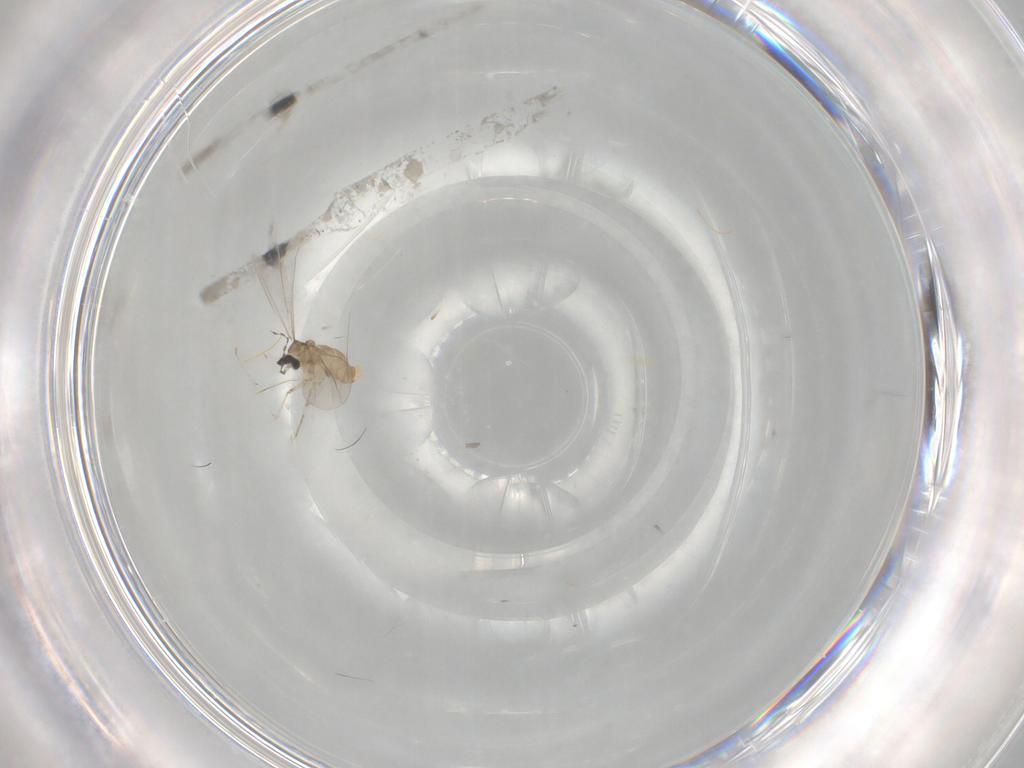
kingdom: Animalia
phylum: Arthropoda
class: Insecta
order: Diptera
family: Cecidomyiidae
